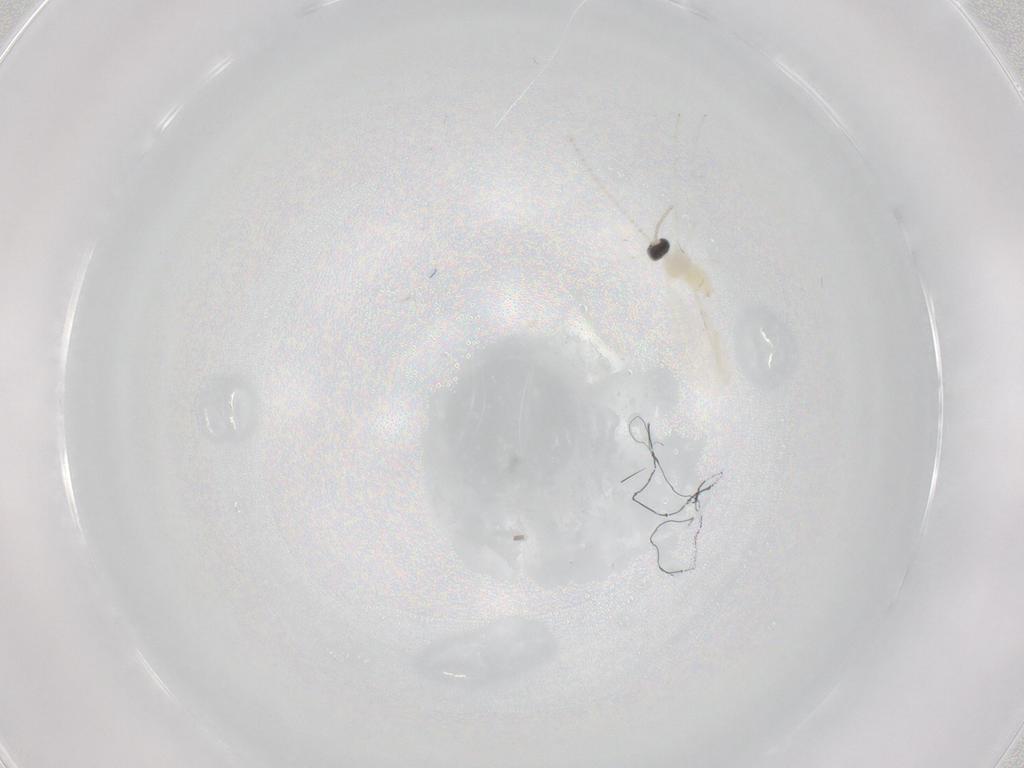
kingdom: Animalia
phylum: Arthropoda
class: Insecta
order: Diptera
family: Cecidomyiidae
